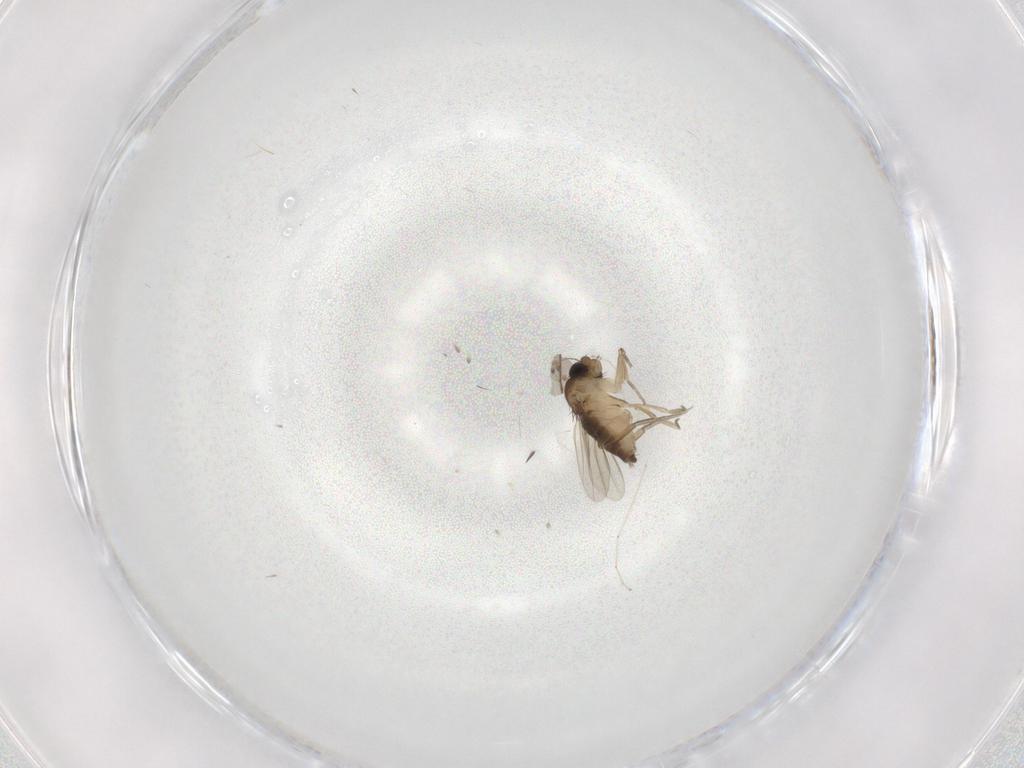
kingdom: Animalia
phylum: Arthropoda
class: Insecta
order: Diptera
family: Phoridae
